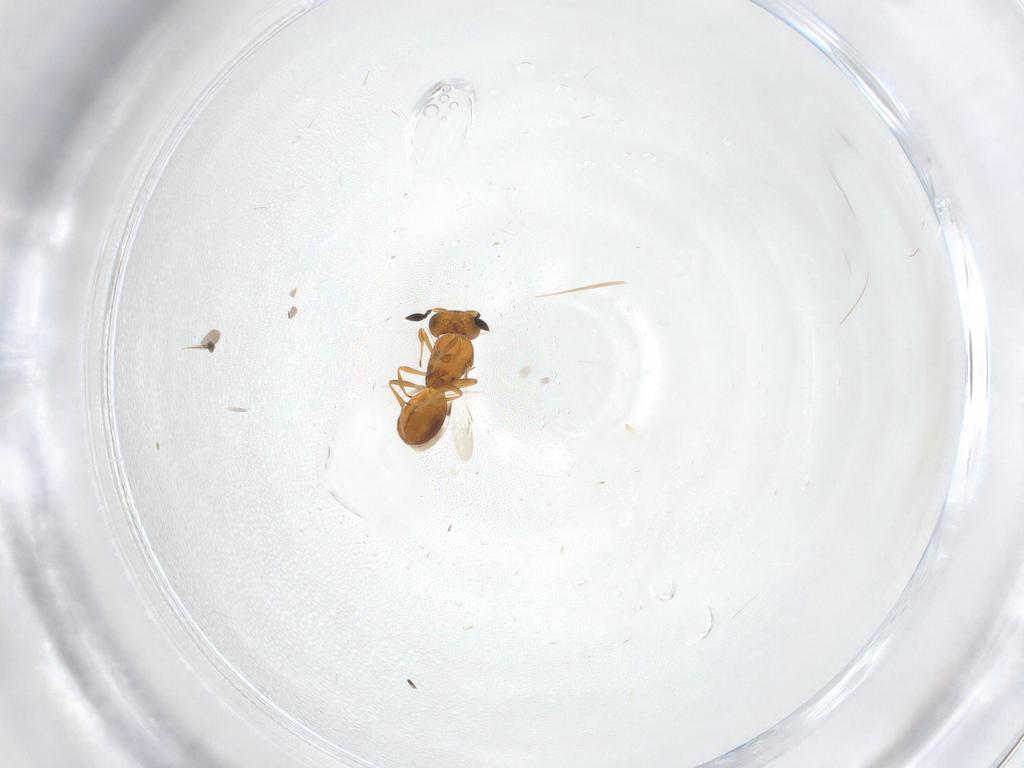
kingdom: Animalia
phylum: Arthropoda
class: Insecta
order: Hymenoptera
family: Scelionidae
